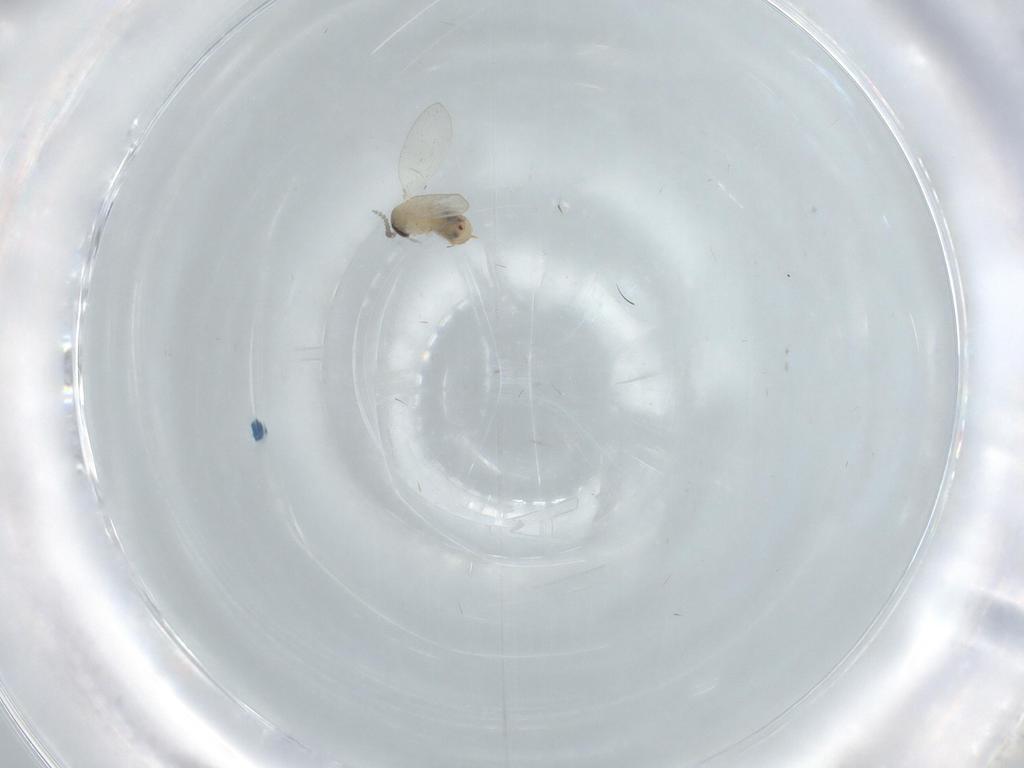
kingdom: Animalia
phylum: Arthropoda
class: Insecta
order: Diptera
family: Psychodidae
